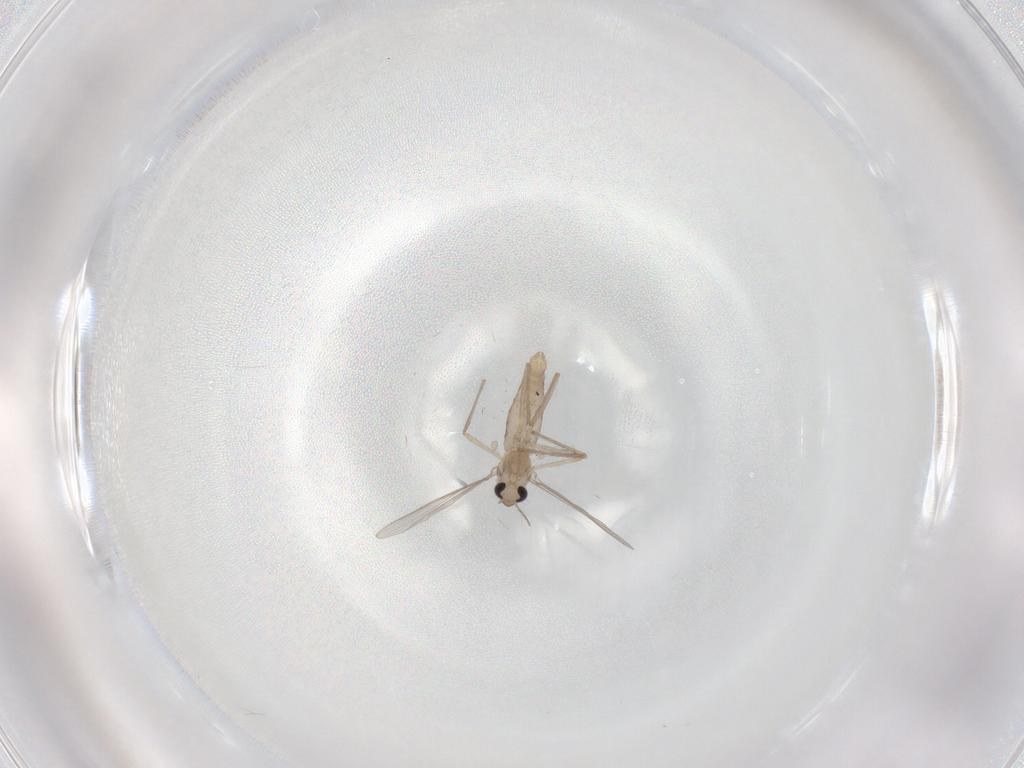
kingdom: Animalia
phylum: Arthropoda
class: Insecta
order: Diptera
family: Chironomidae
